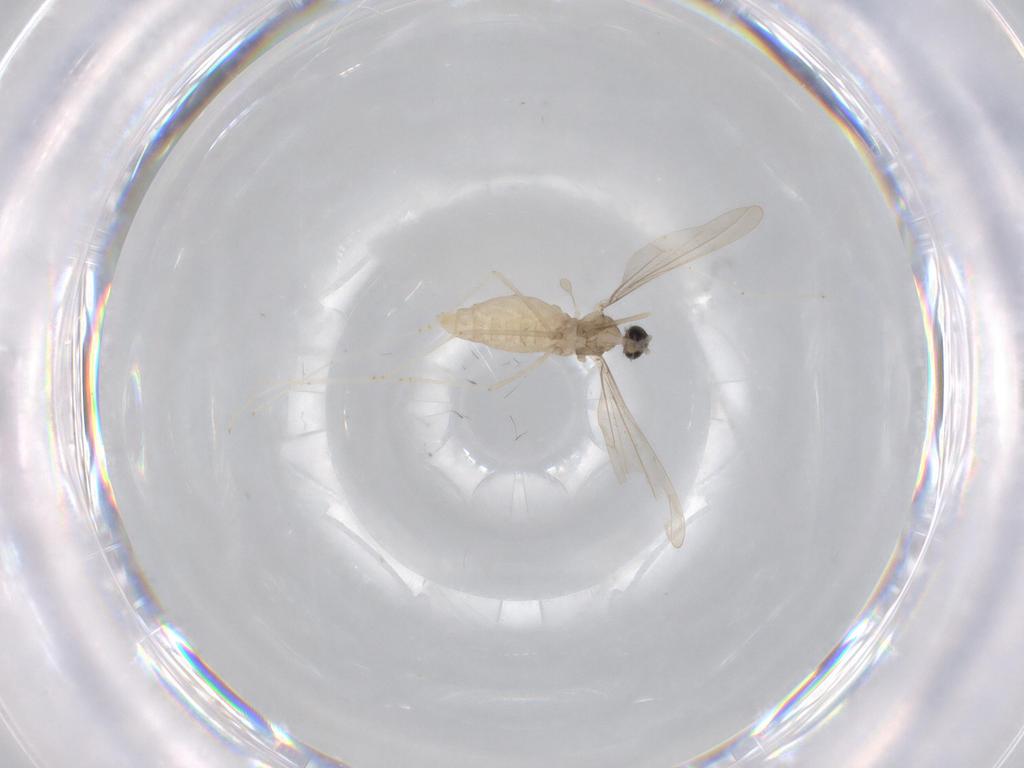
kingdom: Animalia
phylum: Arthropoda
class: Insecta
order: Diptera
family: Cecidomyiidae
